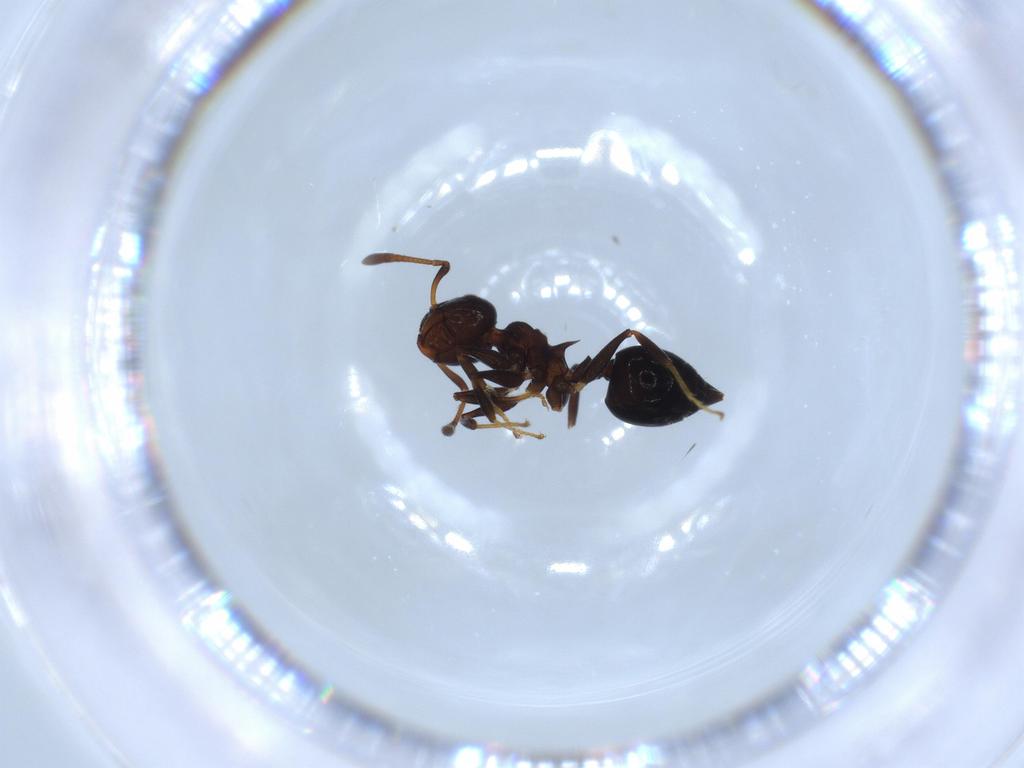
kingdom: Animalia
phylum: Arthropoda
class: Insecta
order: Hymenoptera
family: Formicidae
